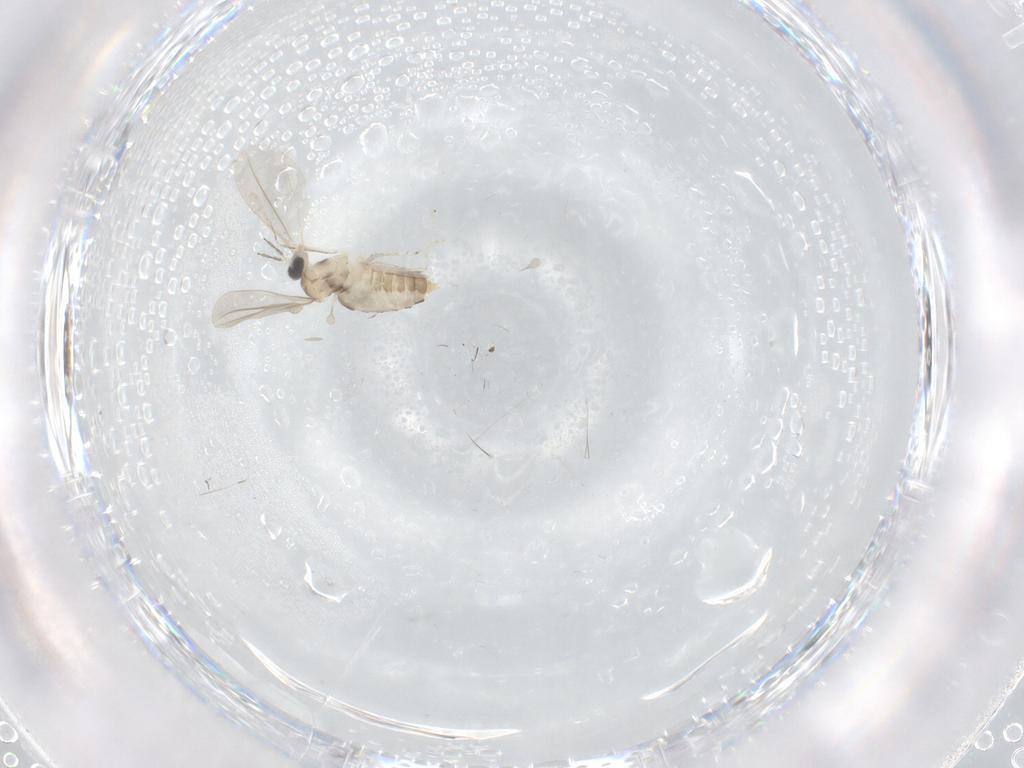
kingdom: Animalia
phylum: Arthropoda
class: Insecta
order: Diptera
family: Cecidomyiidae
